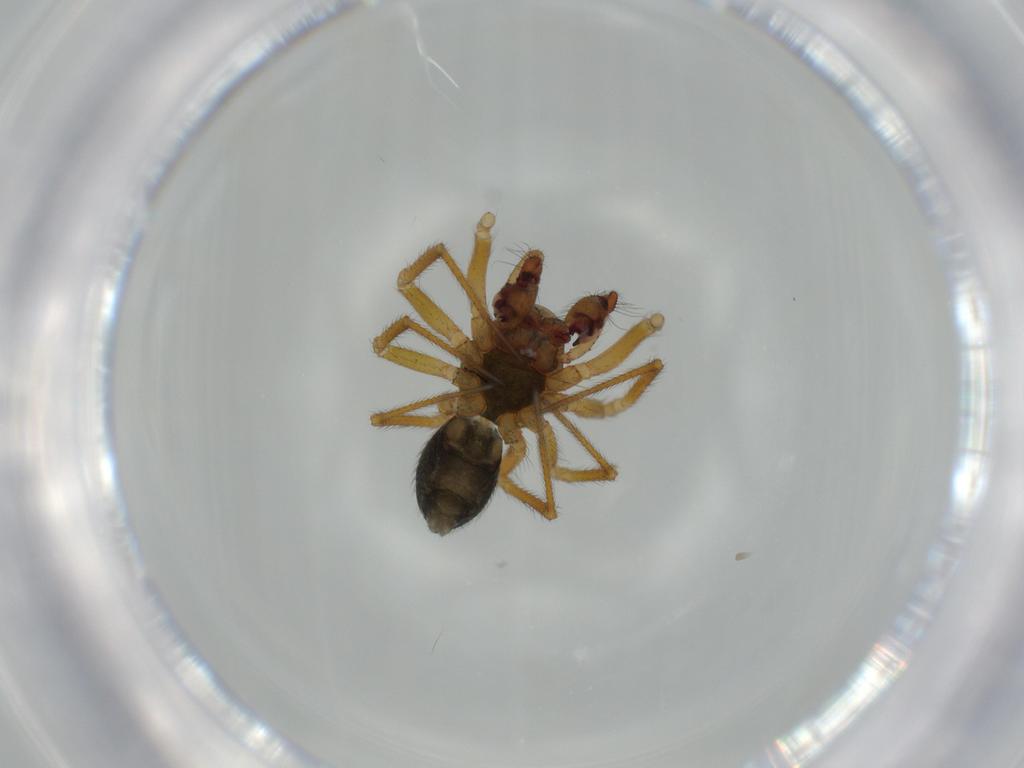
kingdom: Animalia
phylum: Arthropoda
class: Arachnida
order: Araneae
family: Linyphiidae
